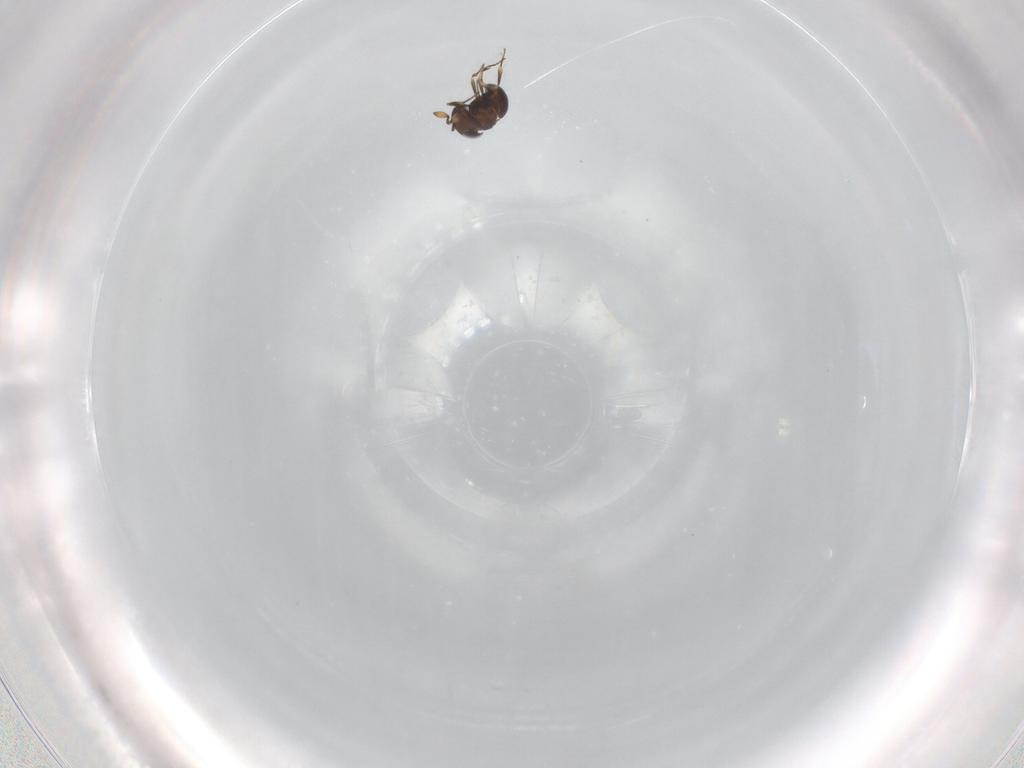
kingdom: Animalia
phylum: Arthropoda
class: Insecta
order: Hymenoptera
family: Scelionidae
